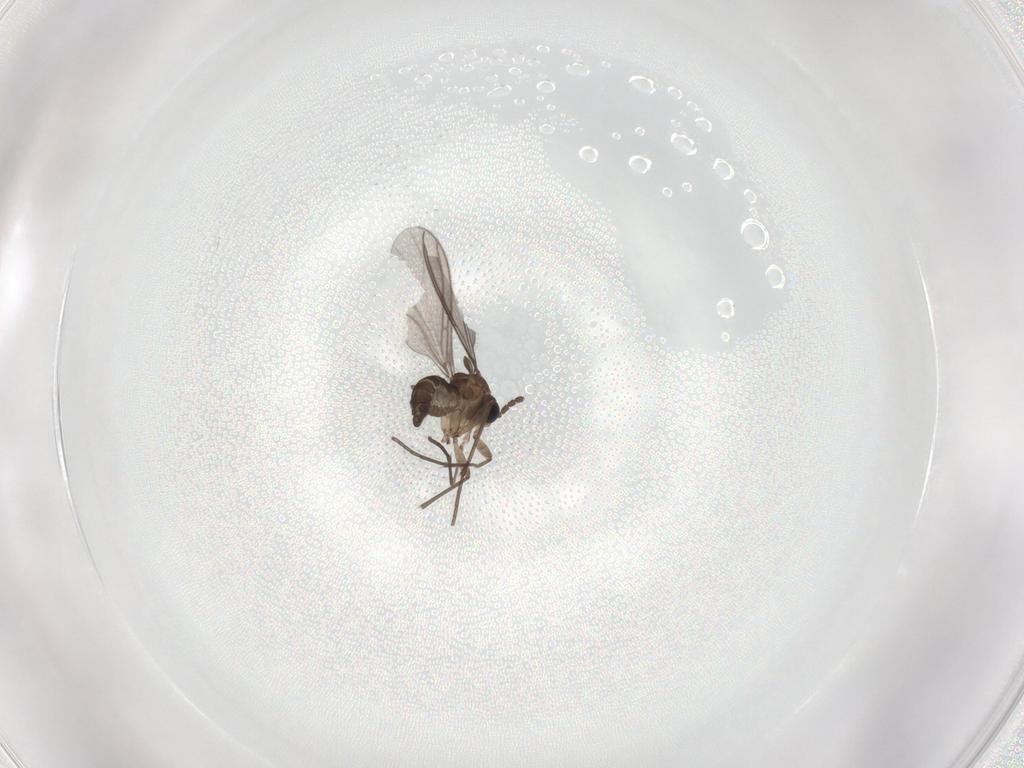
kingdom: Animalia
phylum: Arthropoda
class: Insecta
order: Diptera
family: Sciaridae
